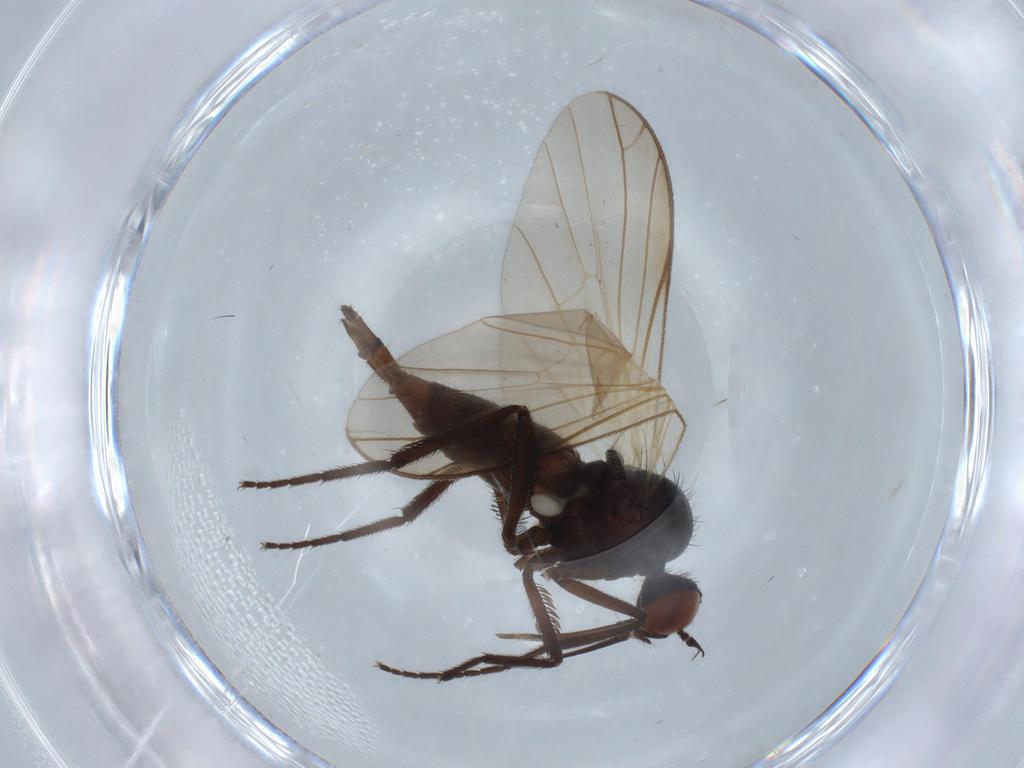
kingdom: Animalia
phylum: Arthropoda
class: Insecta
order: Diptera
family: Empididae
